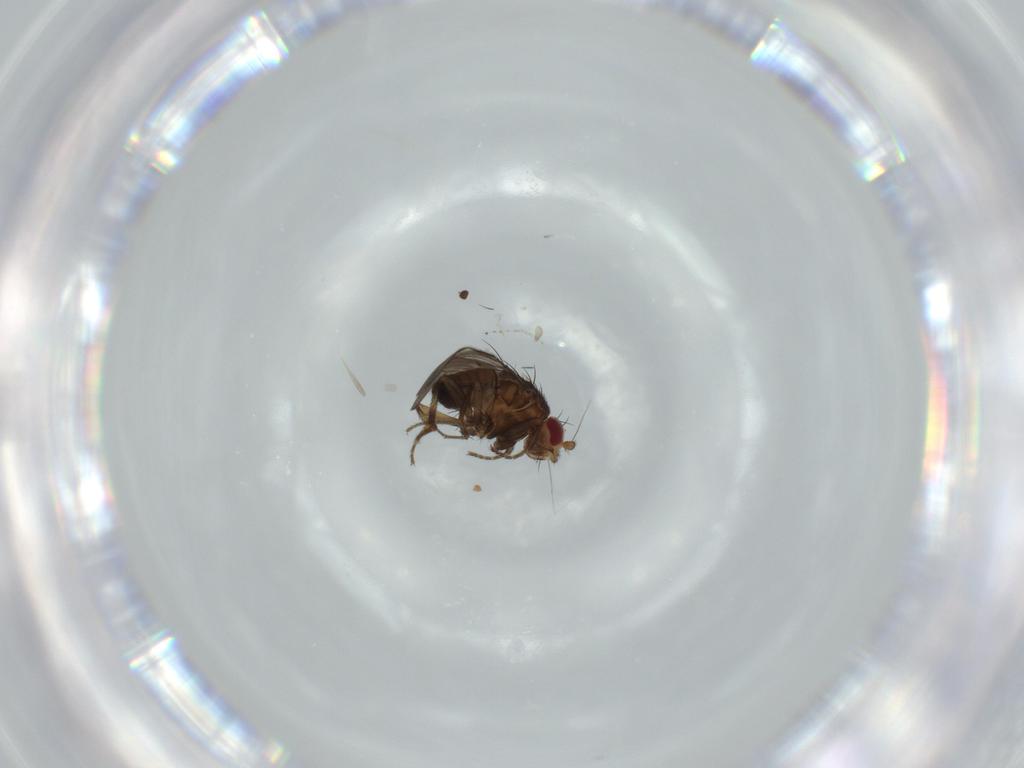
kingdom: Animalia
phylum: Arthropoda
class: Insecta
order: Diptera
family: Dolichopodidae
